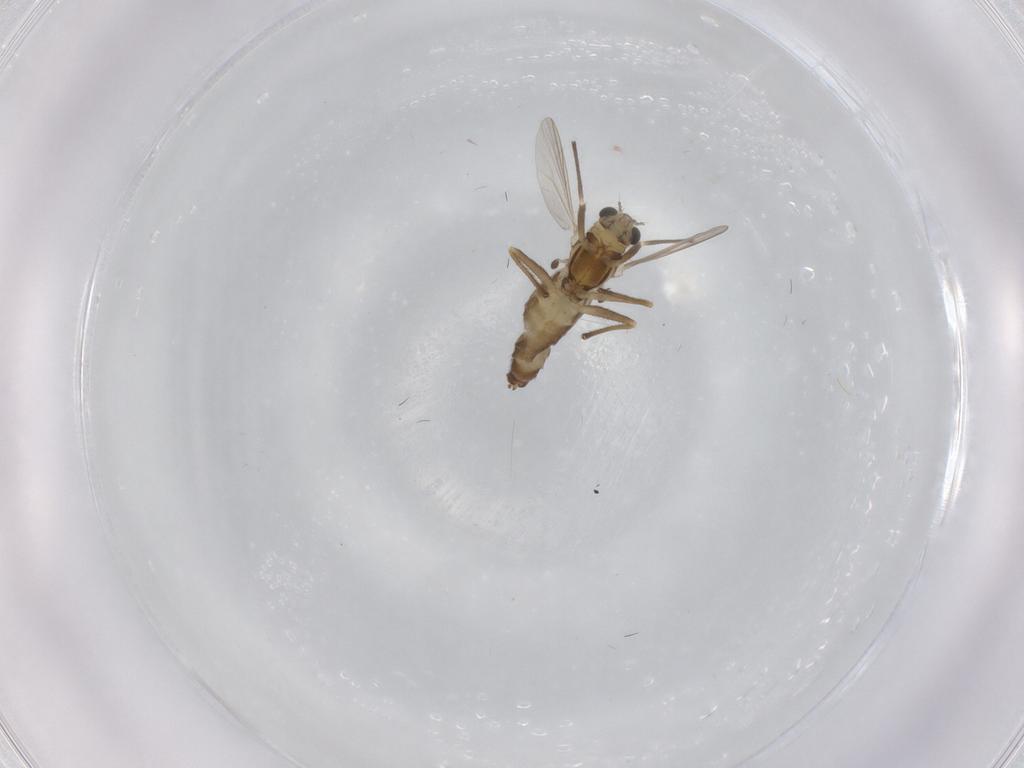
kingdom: Animalia
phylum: Arthropoda
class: Insecta
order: Diptera
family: Chironomidae
